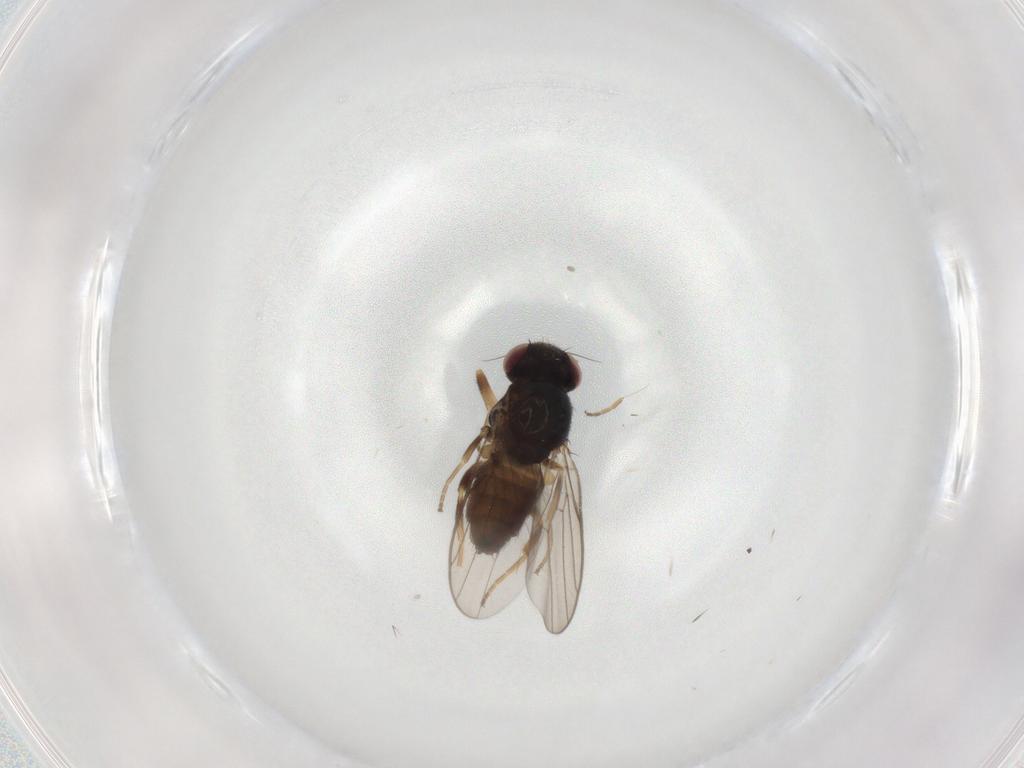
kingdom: Animalia
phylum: Arthropoda
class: Insecta
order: Diptera
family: Chloropidae
